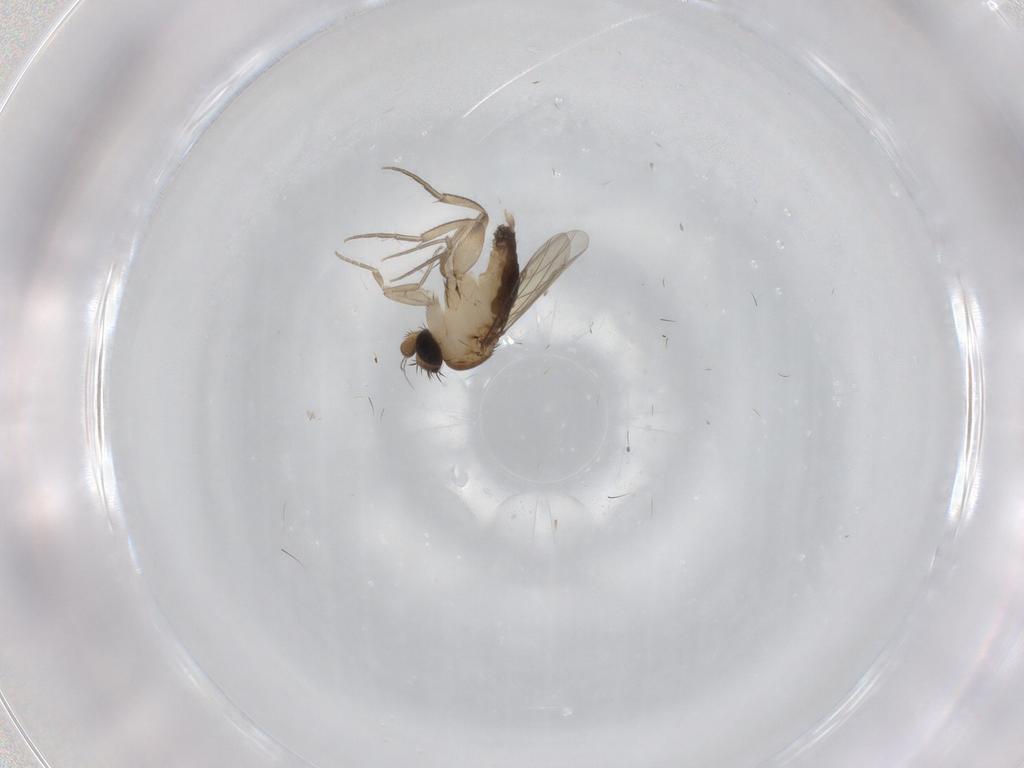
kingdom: Animalia
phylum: Arthropoda
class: Insecta
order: Diptera
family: Phoridae
